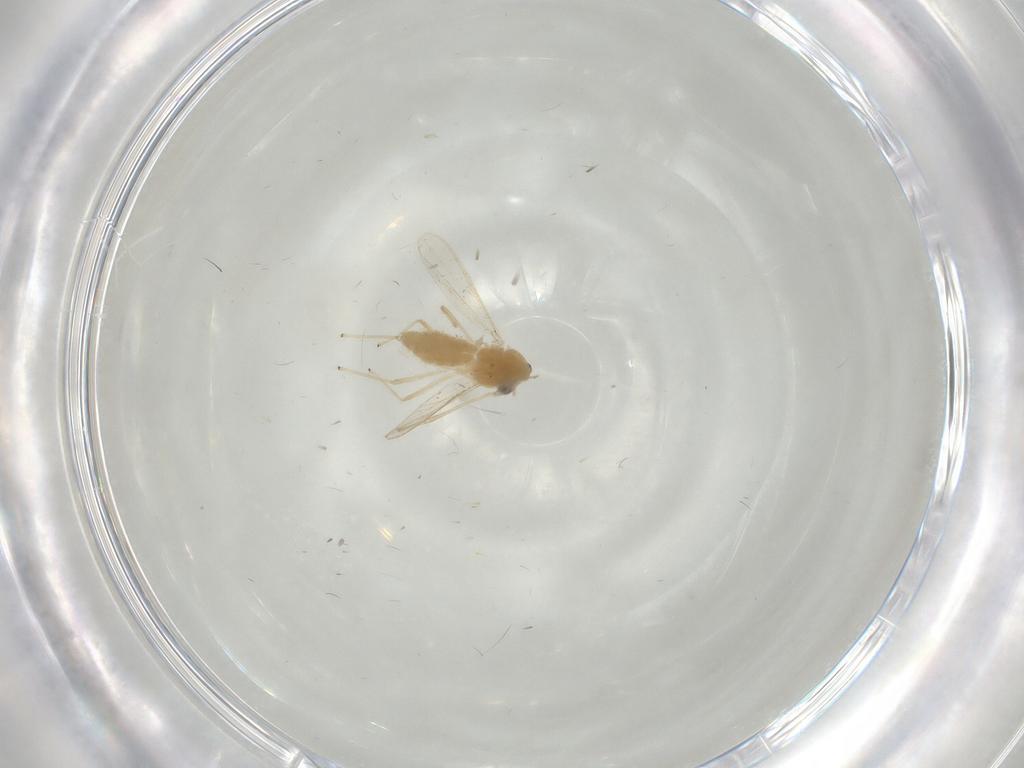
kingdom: Animalia
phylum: Arthropoda
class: Insecta
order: Diptera
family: Chironomidae
